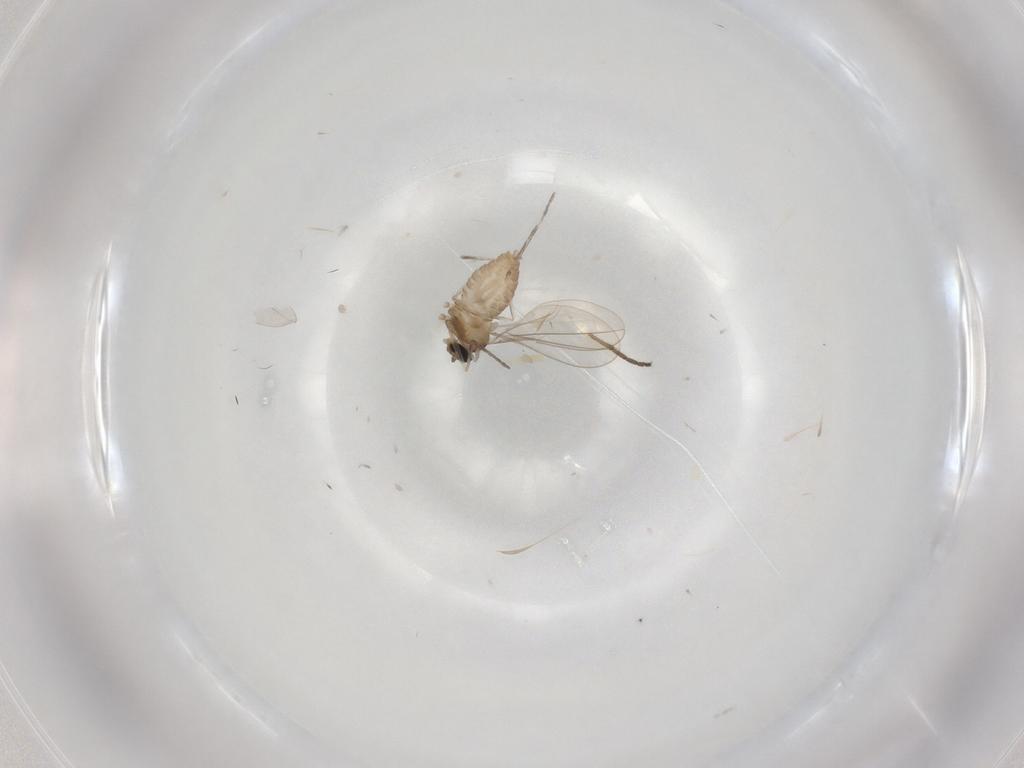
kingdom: Animalia
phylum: Arthropoda
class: Insecta
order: Diptera
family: Cecidomyiidae
